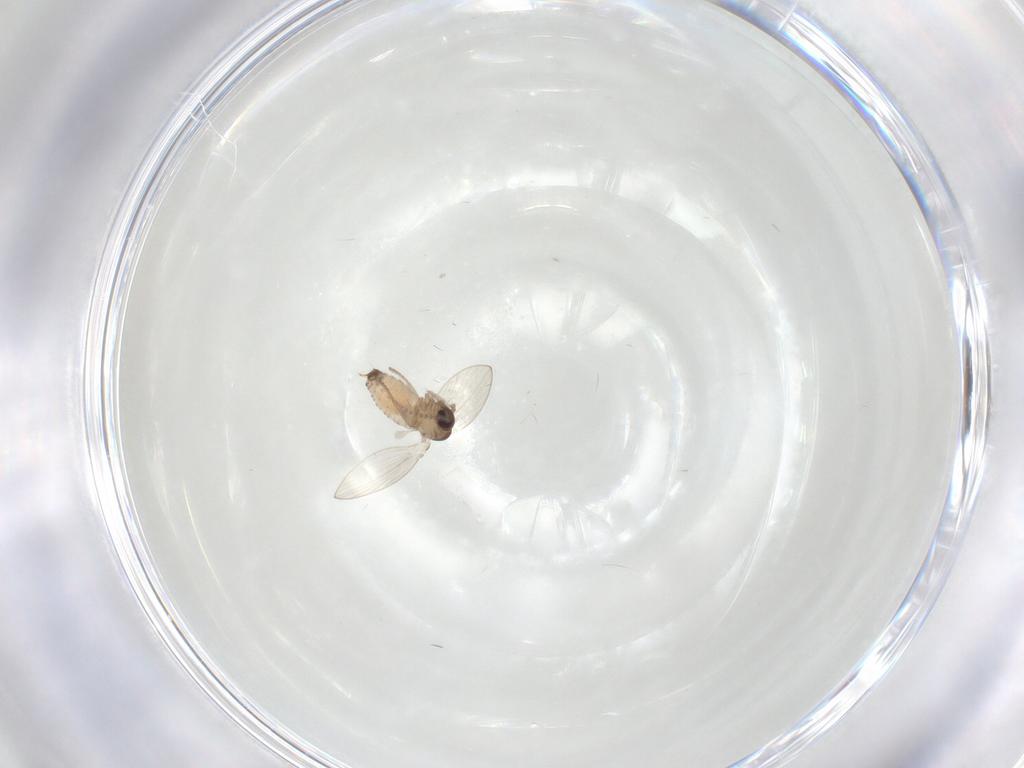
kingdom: Animalia
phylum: Arthropoda
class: Insecta
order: Diptera
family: Psychodidae
